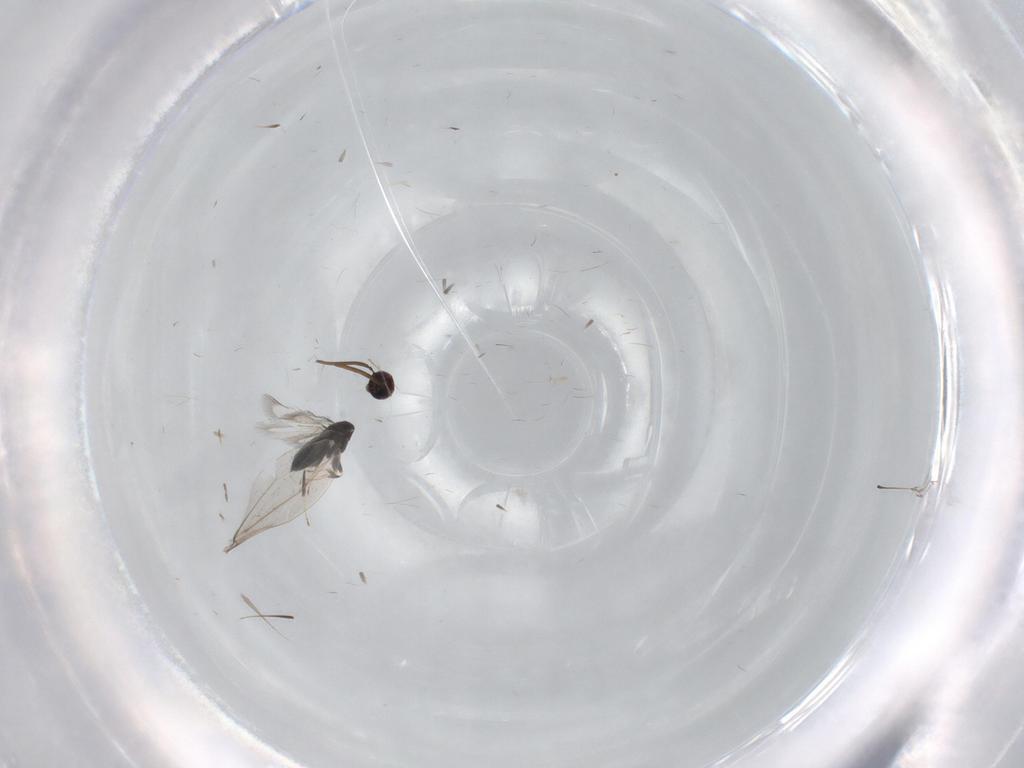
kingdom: Animalia
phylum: Arthropoda
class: Insecta
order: Hymenoptera
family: Signiphoridae
